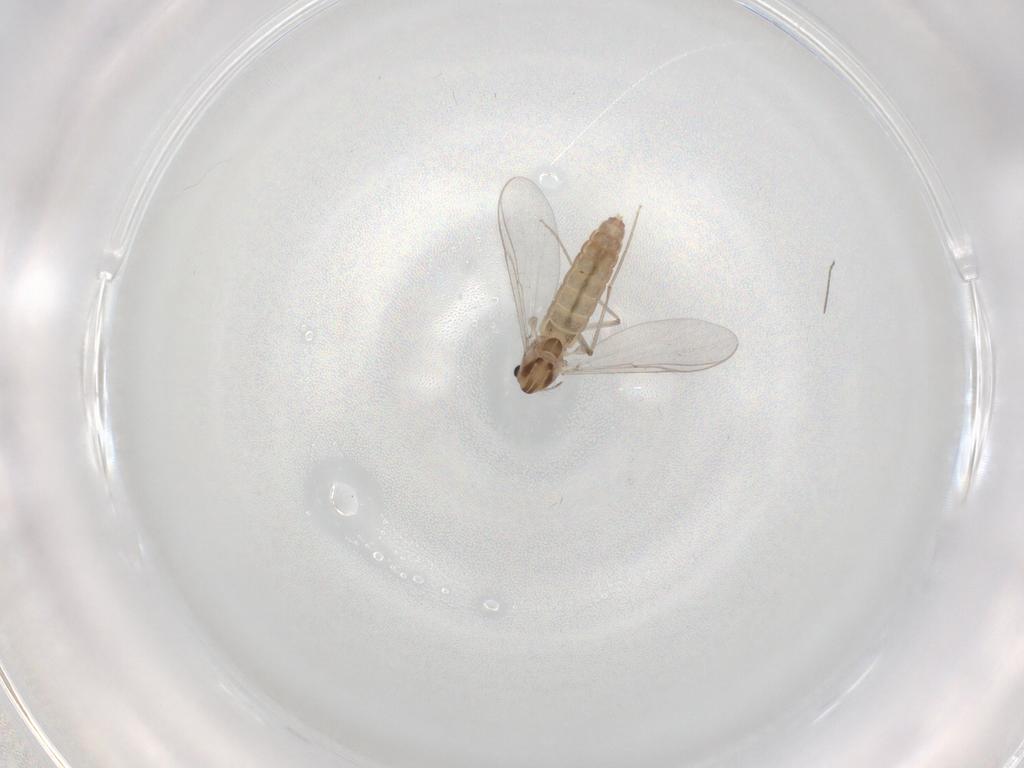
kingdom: Animalia
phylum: Arthropoda
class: Insecta
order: Diptera
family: Chironomidae
